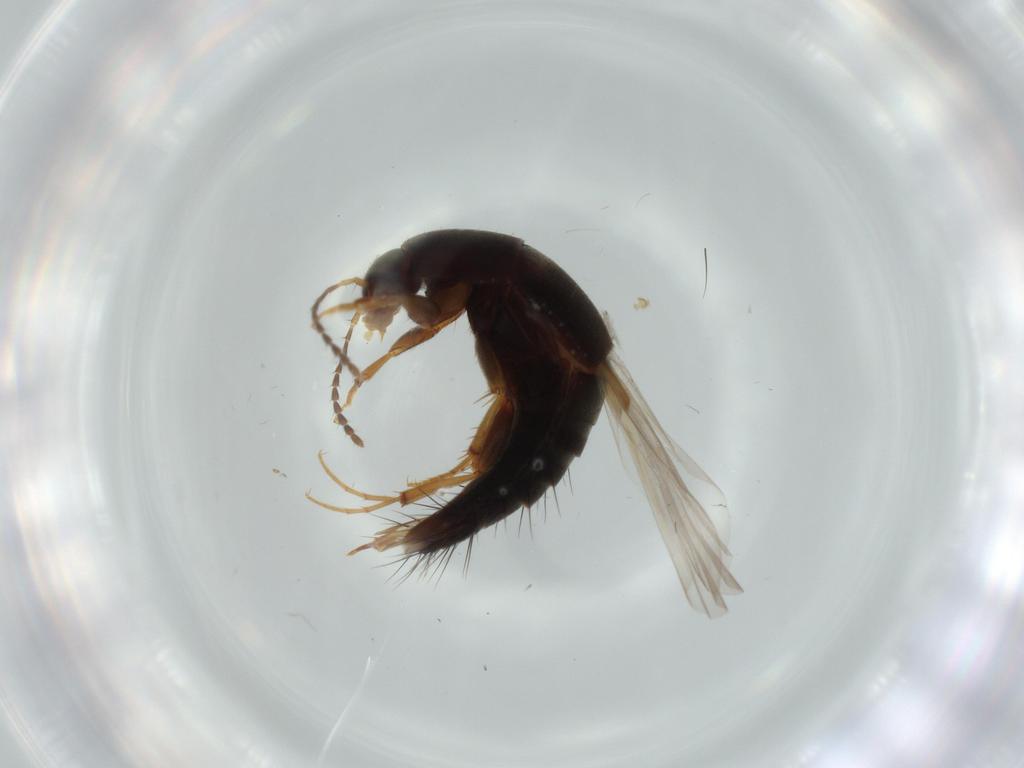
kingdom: Animalia
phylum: Arthropoda
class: Insecta
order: Coleoptera
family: Staphylinidae
